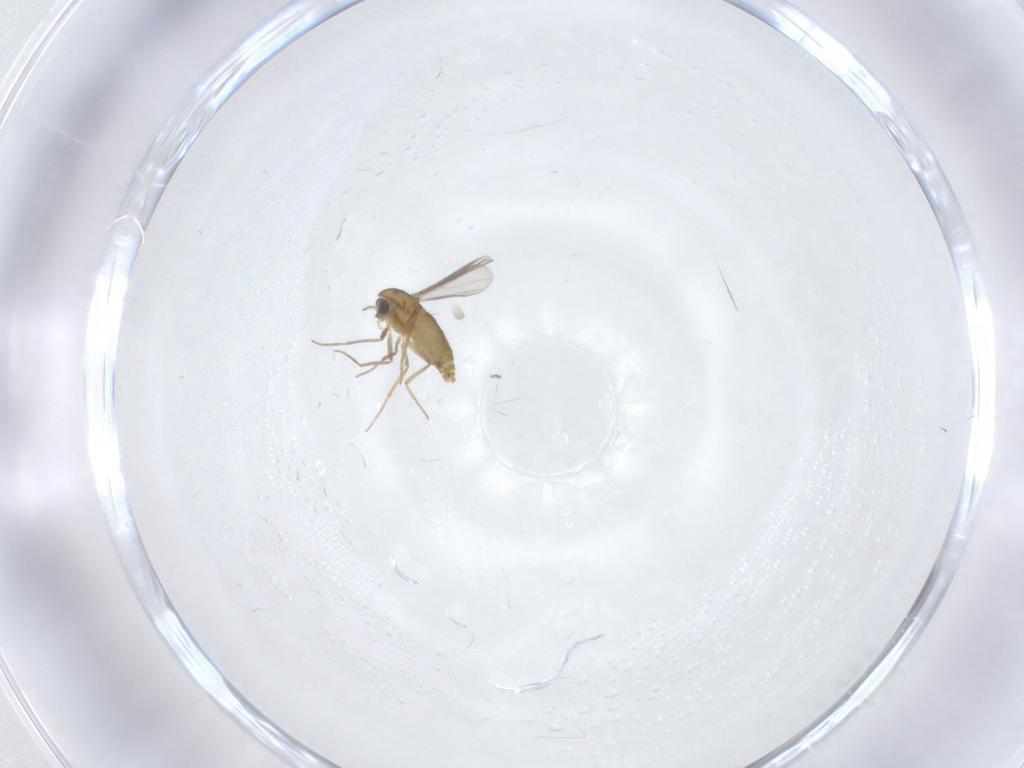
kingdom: Animalia
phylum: Arthropoda
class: Insecta
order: Diptera
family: Chironomidae
